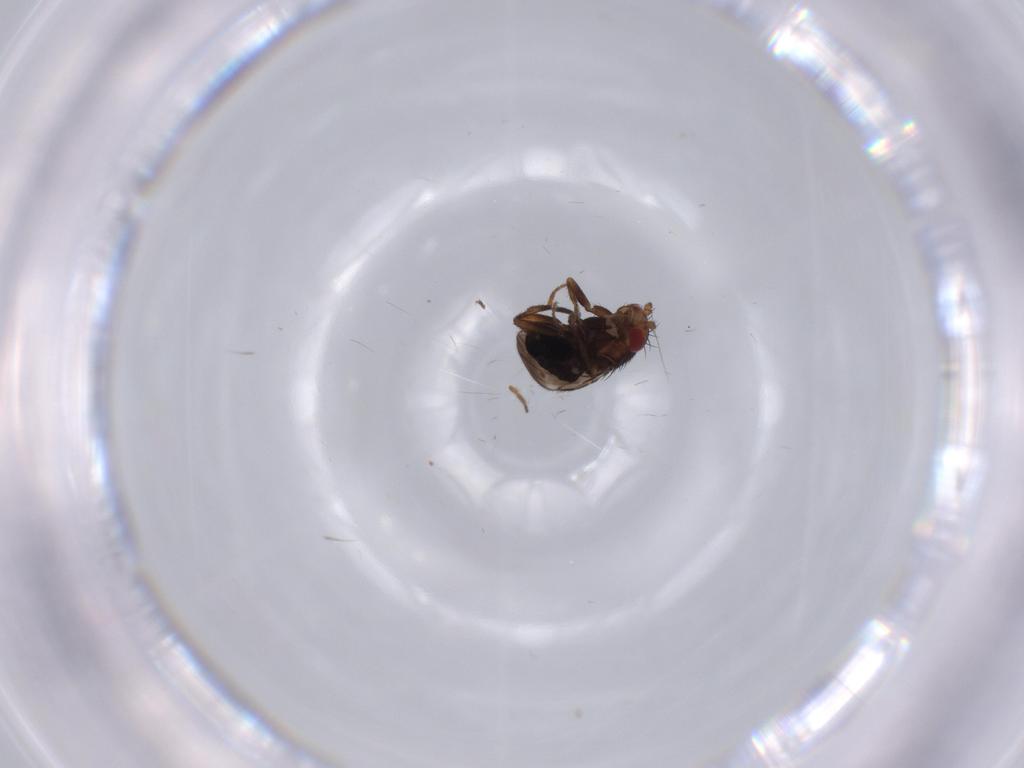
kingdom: Animalia
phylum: Arthropoda
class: Insecta
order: Diptera
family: Sphaeroceridae
